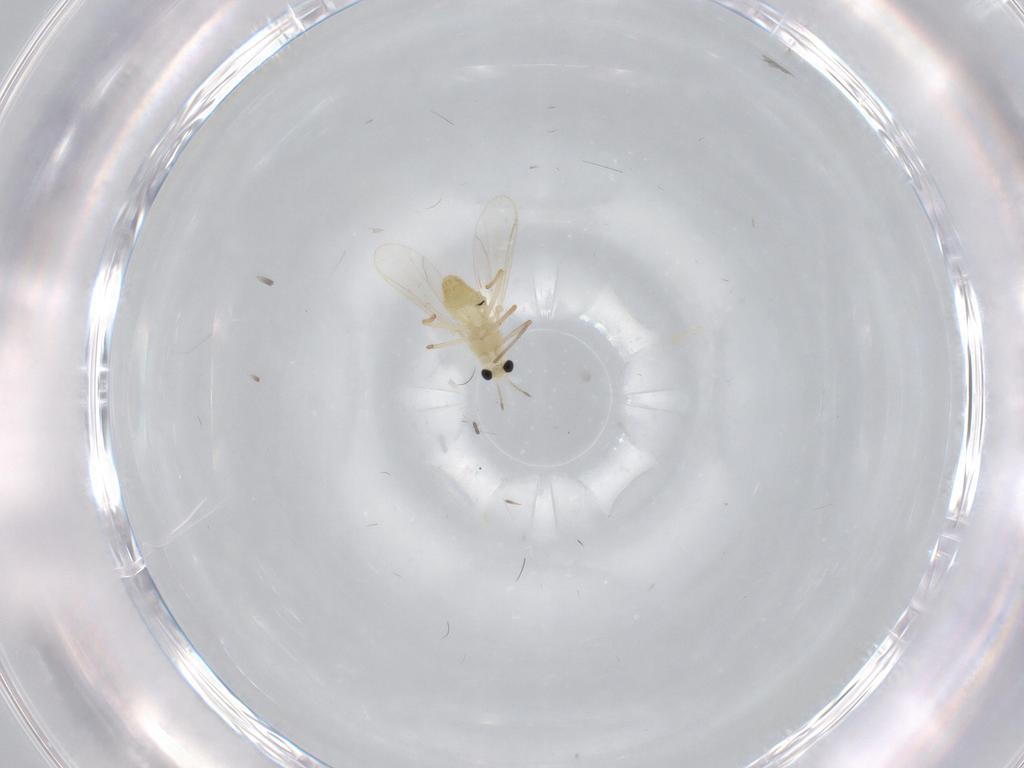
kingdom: Animalia
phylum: Arthropoda
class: Insecta
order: Diptera
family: Chironomidae
